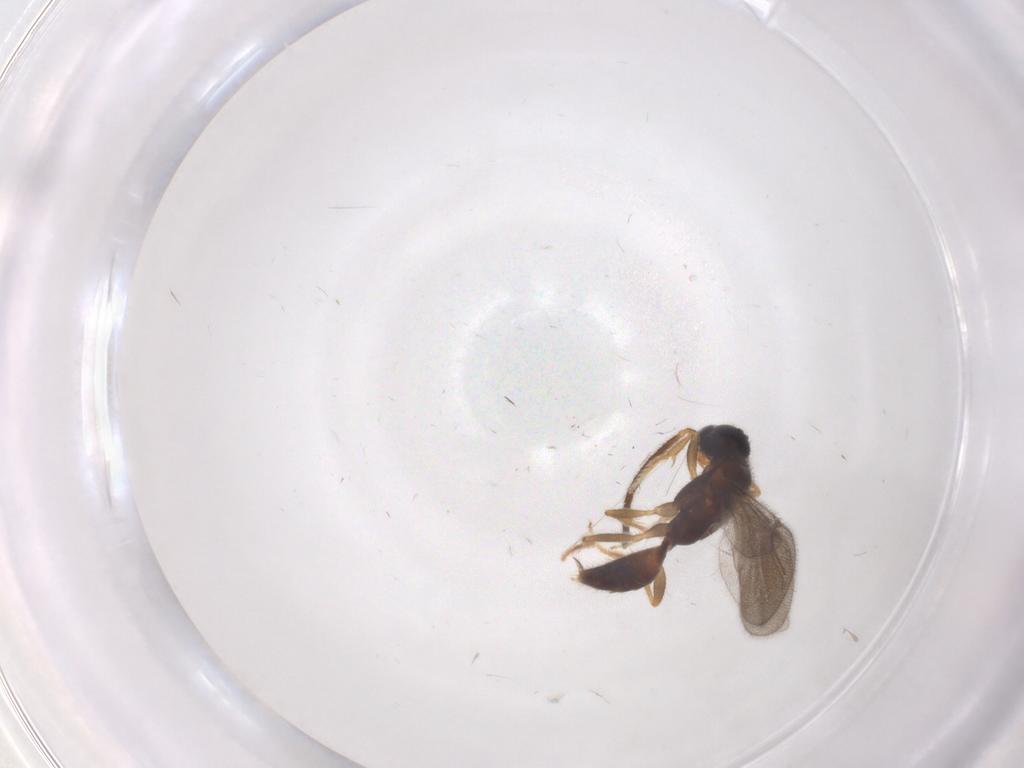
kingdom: Animalia
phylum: Arthropoda
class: Insecta
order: Hymenoptera
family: Bethylidae
